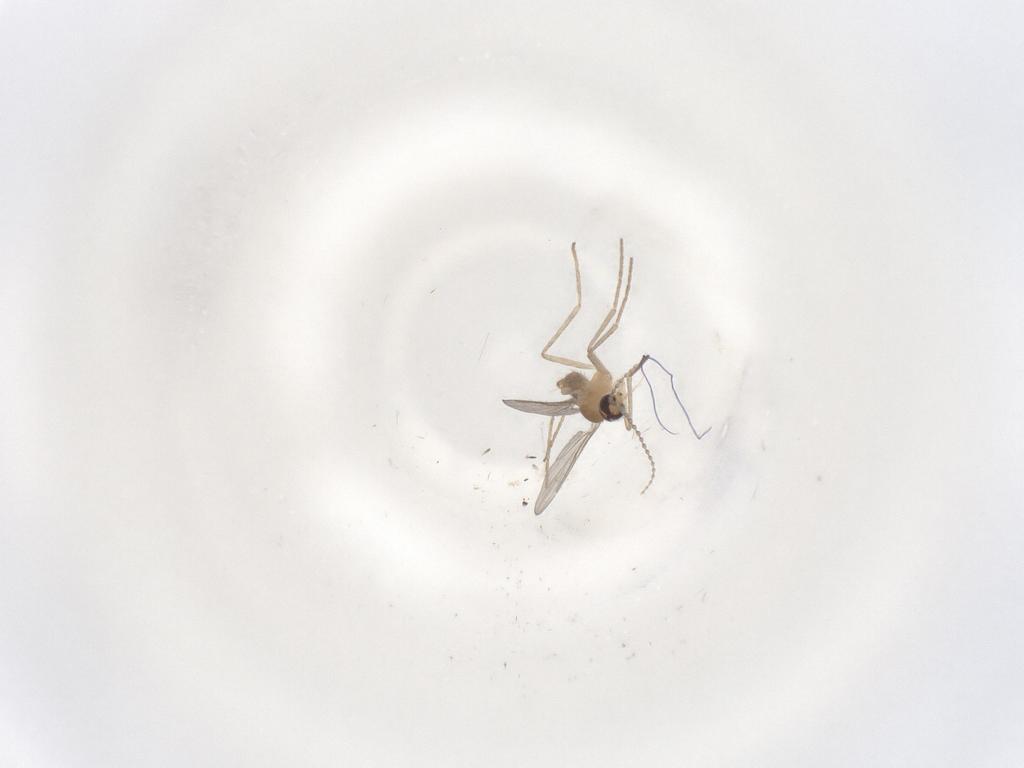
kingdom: Animalia
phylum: Arthropoda
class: Insecta
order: Diptera
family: Cecidomyiidae
